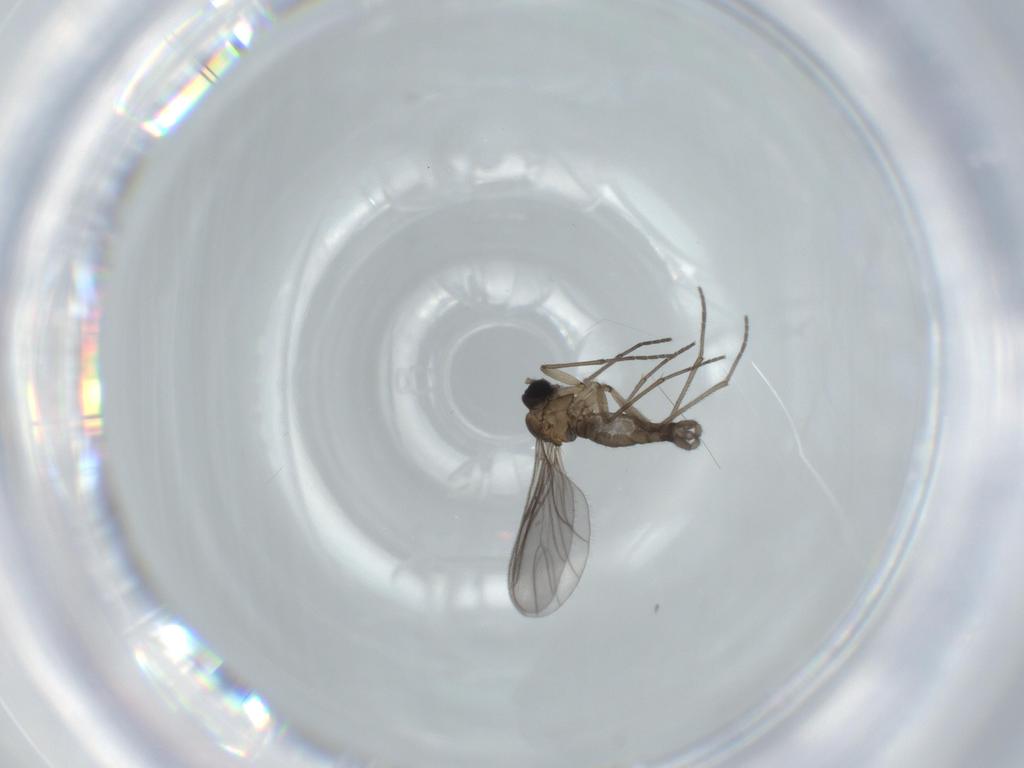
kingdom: Animalia
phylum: Arthropoda
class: Insecta
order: Diptera
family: Sciaridae
